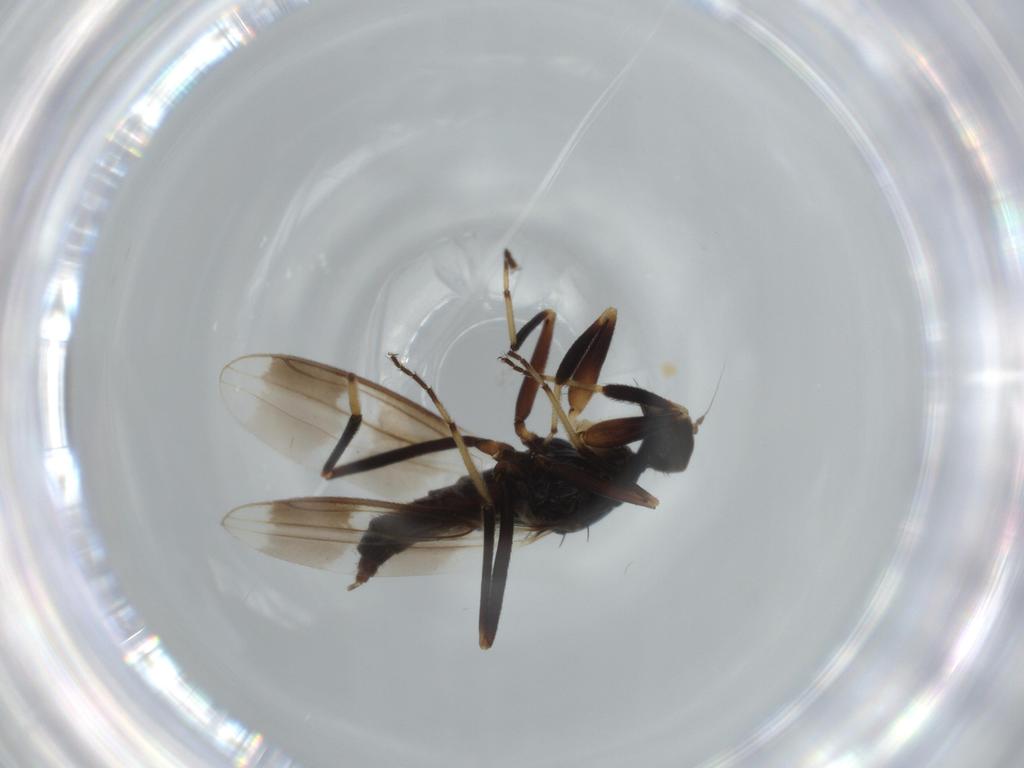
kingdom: Animalia
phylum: Arthropoda
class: Insecta
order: Diptera
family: Hybotidae
